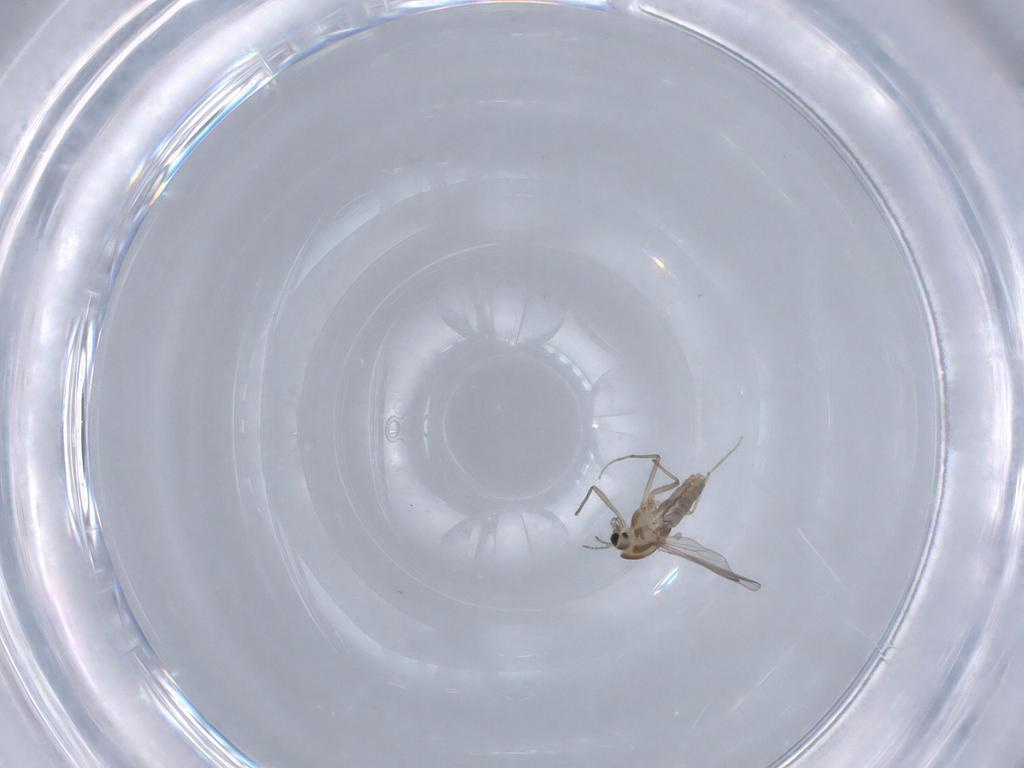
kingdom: Animalia
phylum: Arthropoda
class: Insecta
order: Diptera
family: Chironomidae
